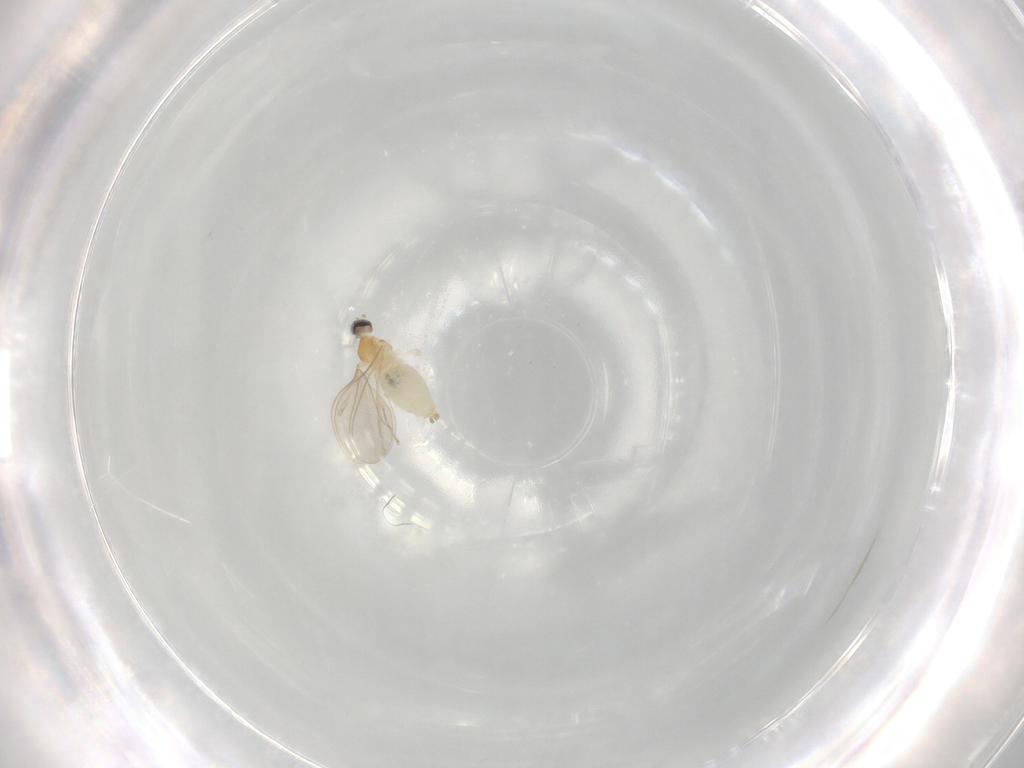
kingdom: Animalia
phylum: Arthropoda
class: Insecta
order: Diptera
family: Cecidomyiidae
